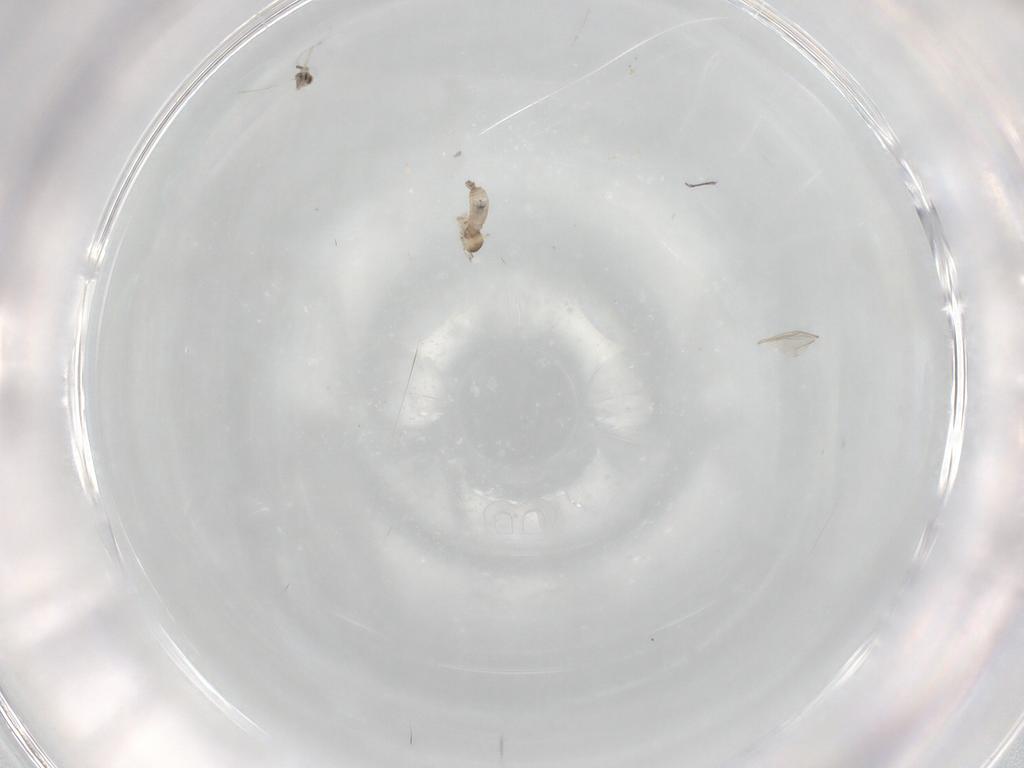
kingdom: Animalia
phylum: Arthropoda
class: Insecta
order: Diptera
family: Cecidomyiidae
